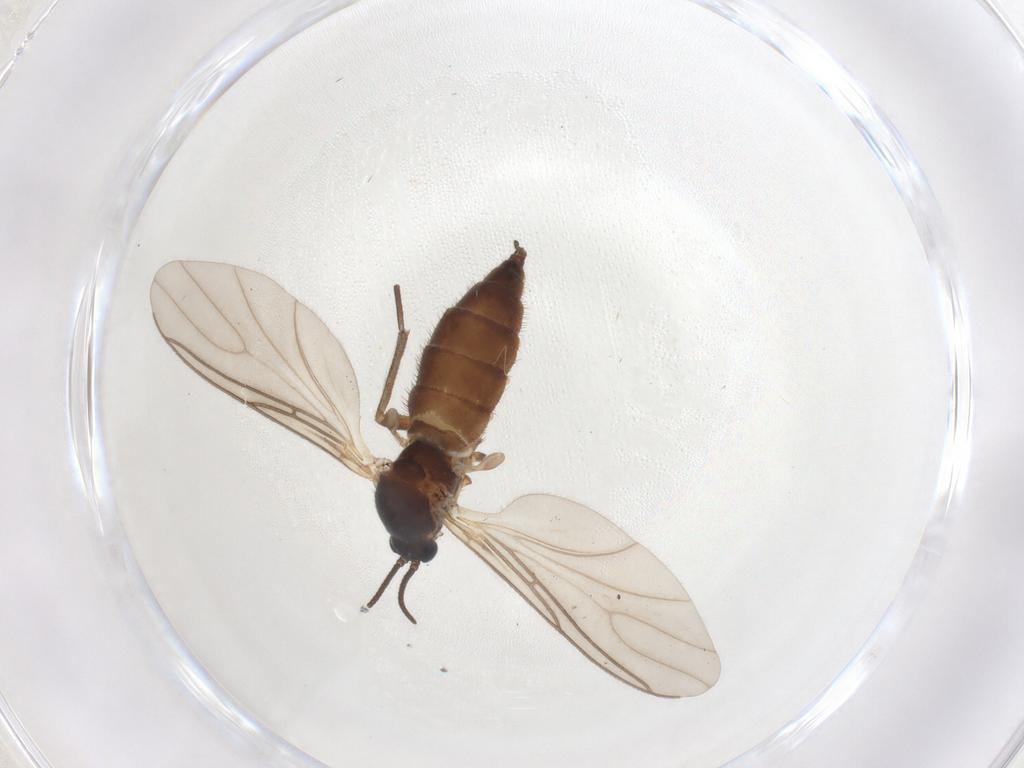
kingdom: Animalia
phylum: Arthropoda
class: Insecta
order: Diptera
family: Sciaridae
